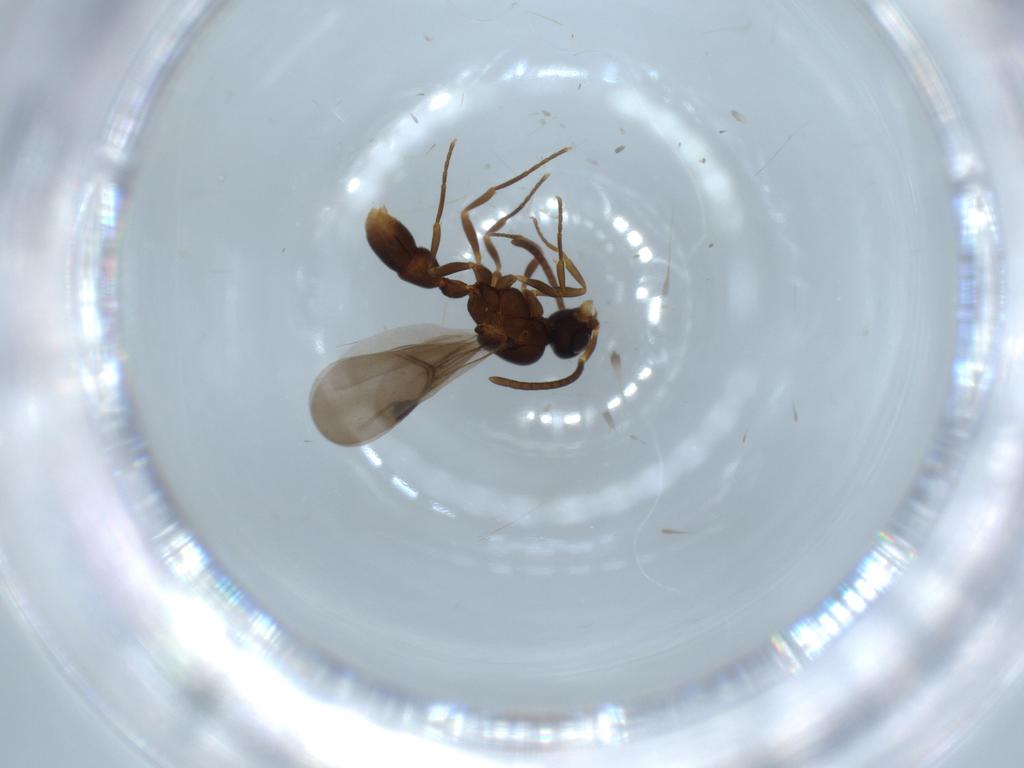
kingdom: Animalia
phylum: Arthropoda
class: Insecta
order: Hymenoptera
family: Formicidae
